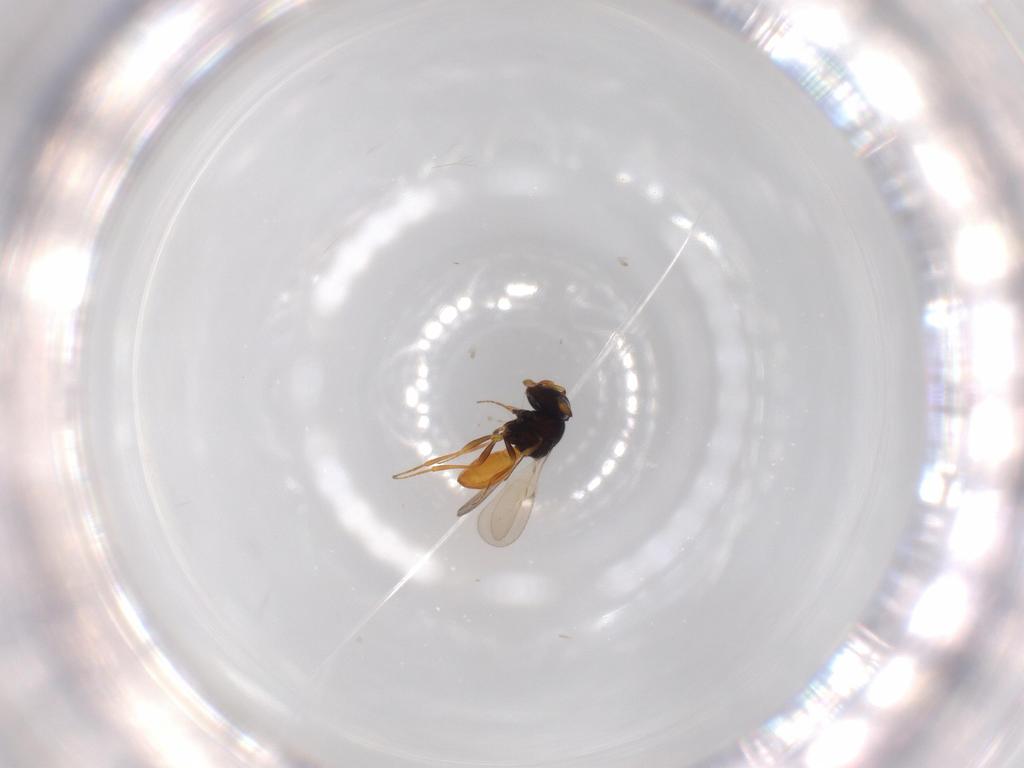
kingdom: Animalia
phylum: Arthropoda
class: Insecta
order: Hymenoptera
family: Scelionidae
